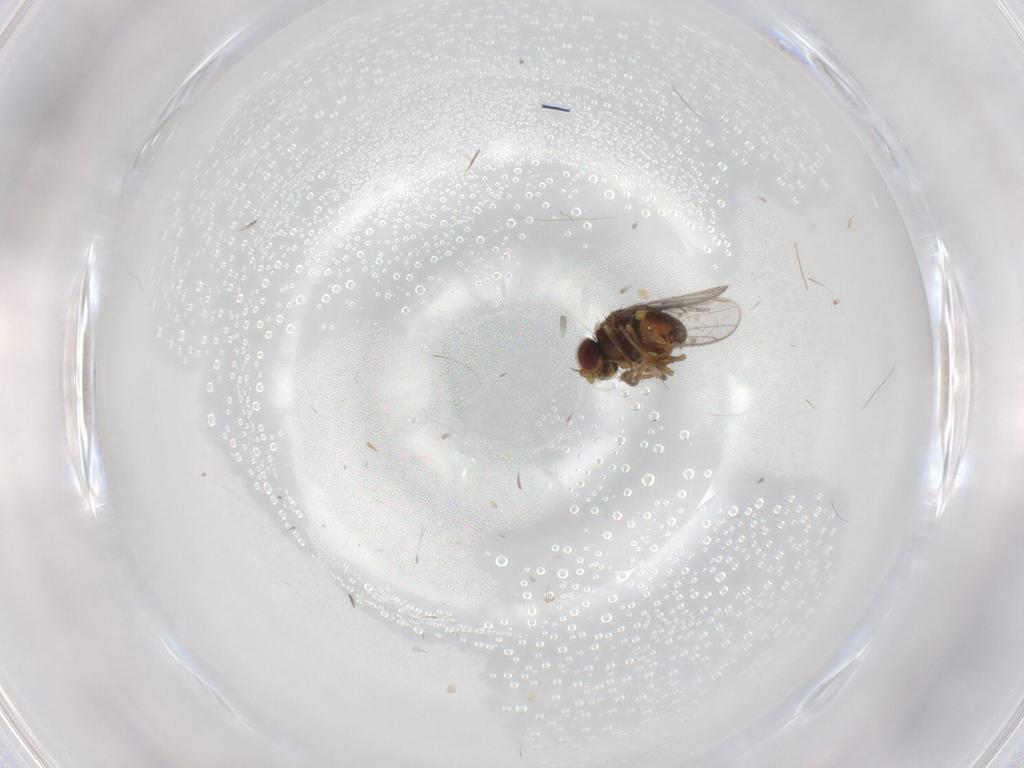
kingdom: Animalia
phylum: Arthropoda
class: Insecta
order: Diptera
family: Chloropidae
